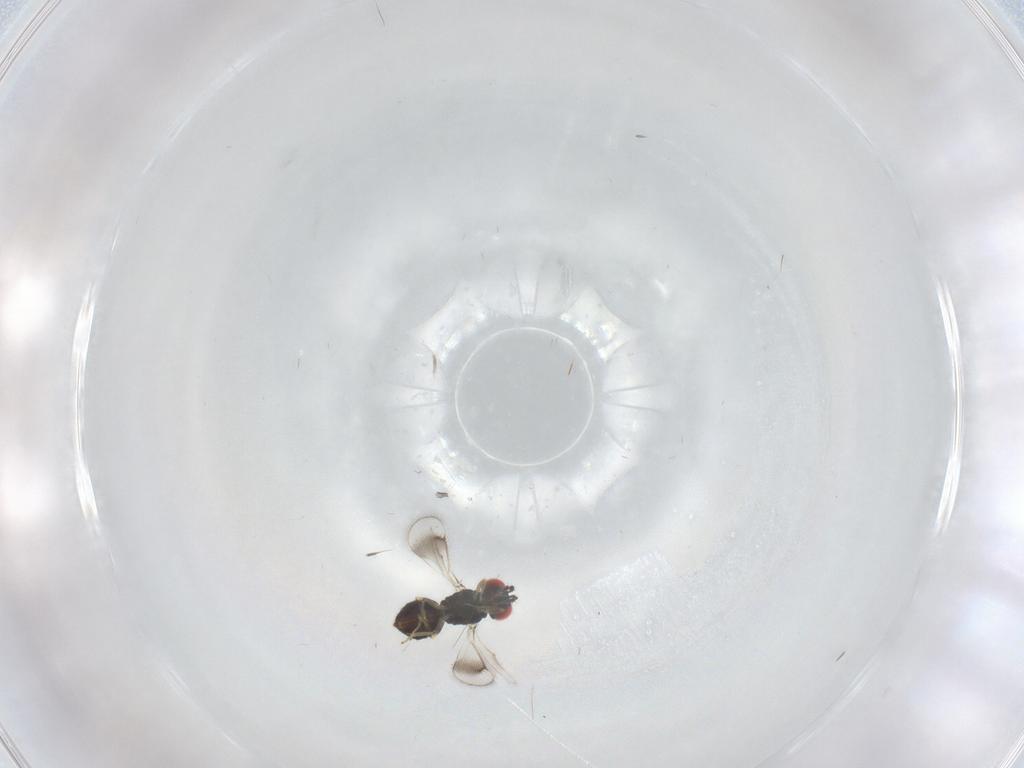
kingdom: Animalia
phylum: Arthropoda
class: Insecta
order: Hymenoptera
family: Eulophidae
